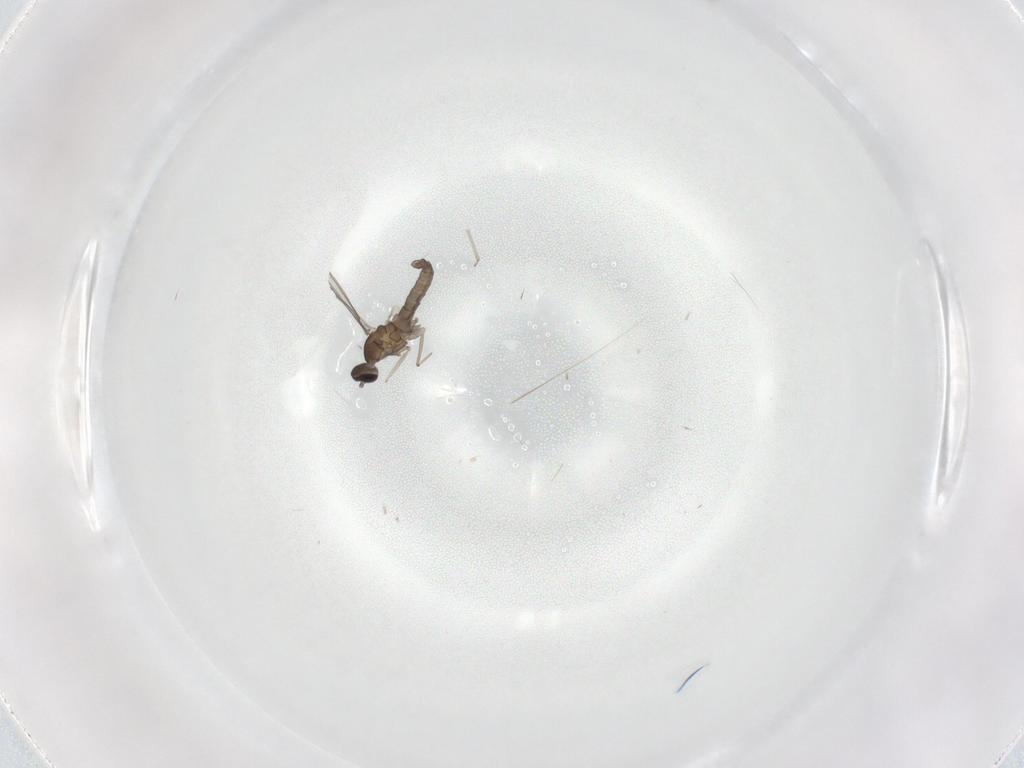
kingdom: Animalia
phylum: Arthropoda
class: Insecta
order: Diptera
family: Cecidomyiidae
